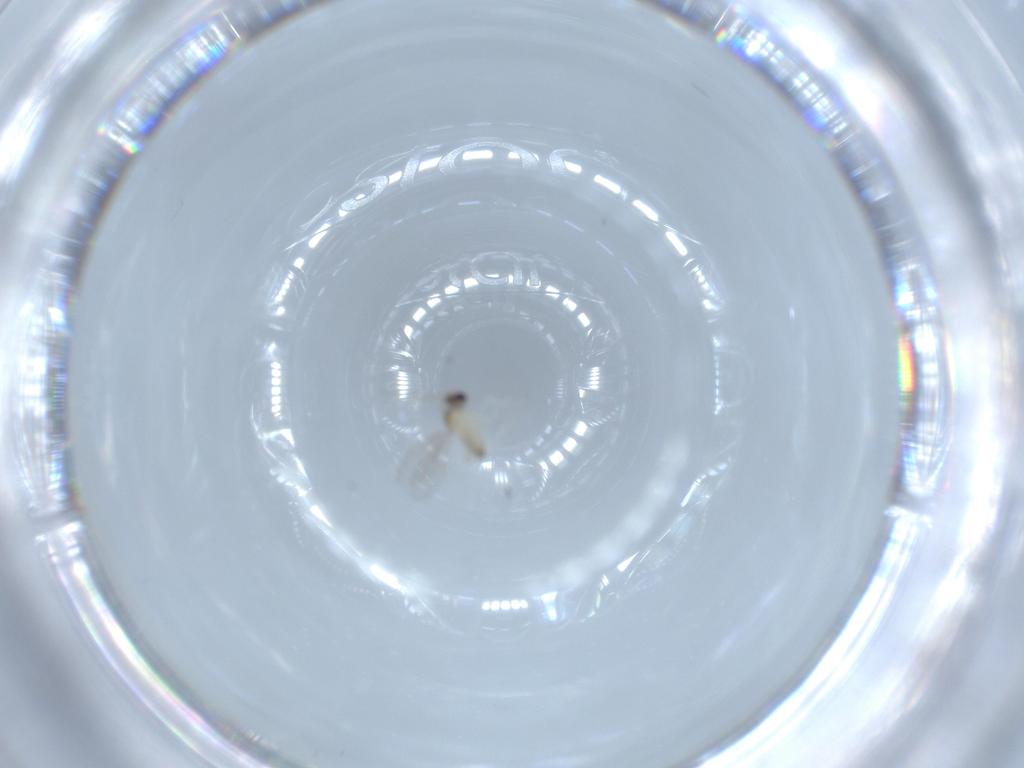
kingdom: Animalia
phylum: Arthropoda
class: Insecta
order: Diptera
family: Cecidomyiidae
